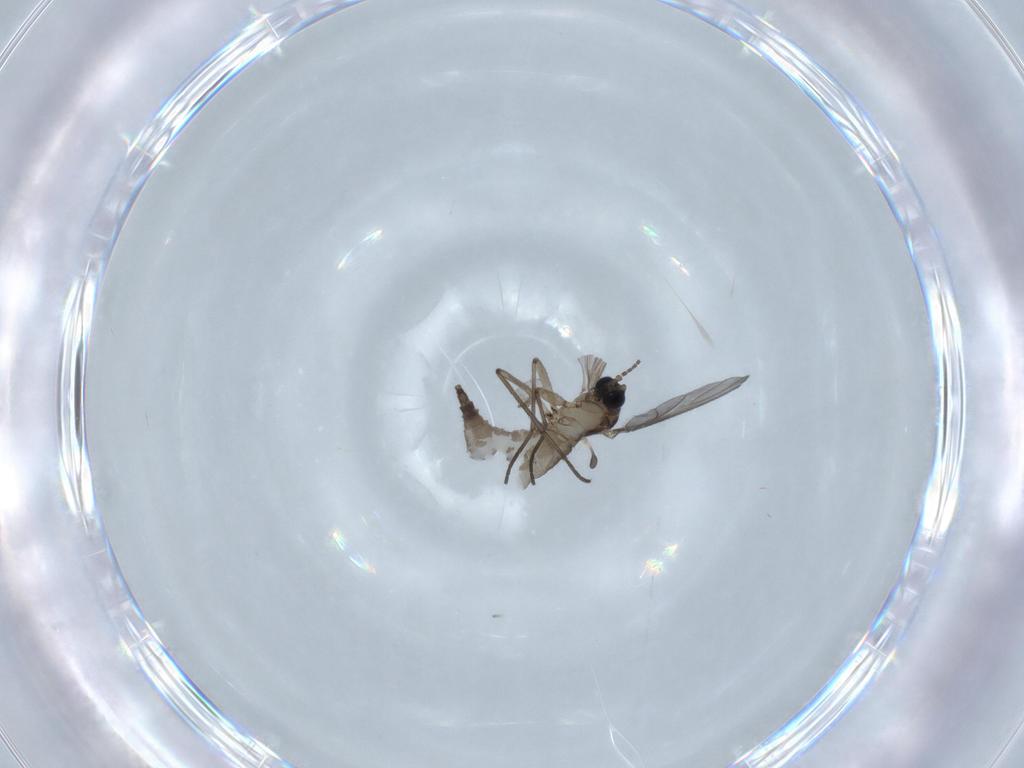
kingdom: Animalia
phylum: Arthropoda
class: Insecta
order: Diptera
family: Sciaridae
